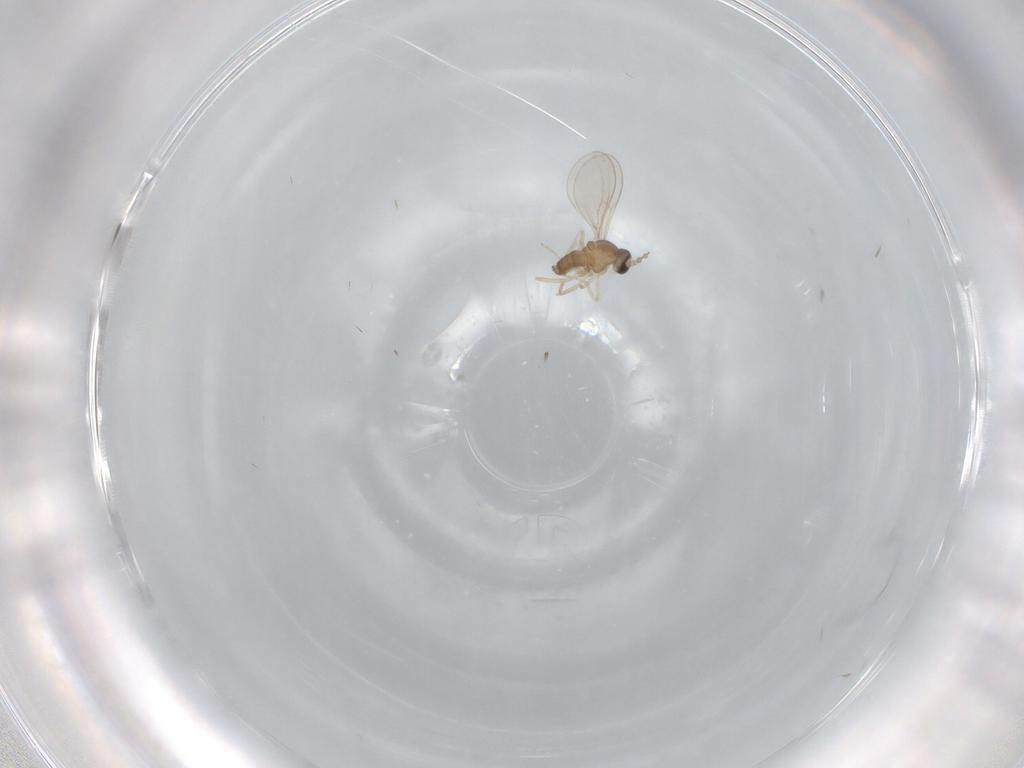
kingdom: Animalia
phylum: Arthropoda
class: Insecta
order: Diptera
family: Cecidomyiidae
